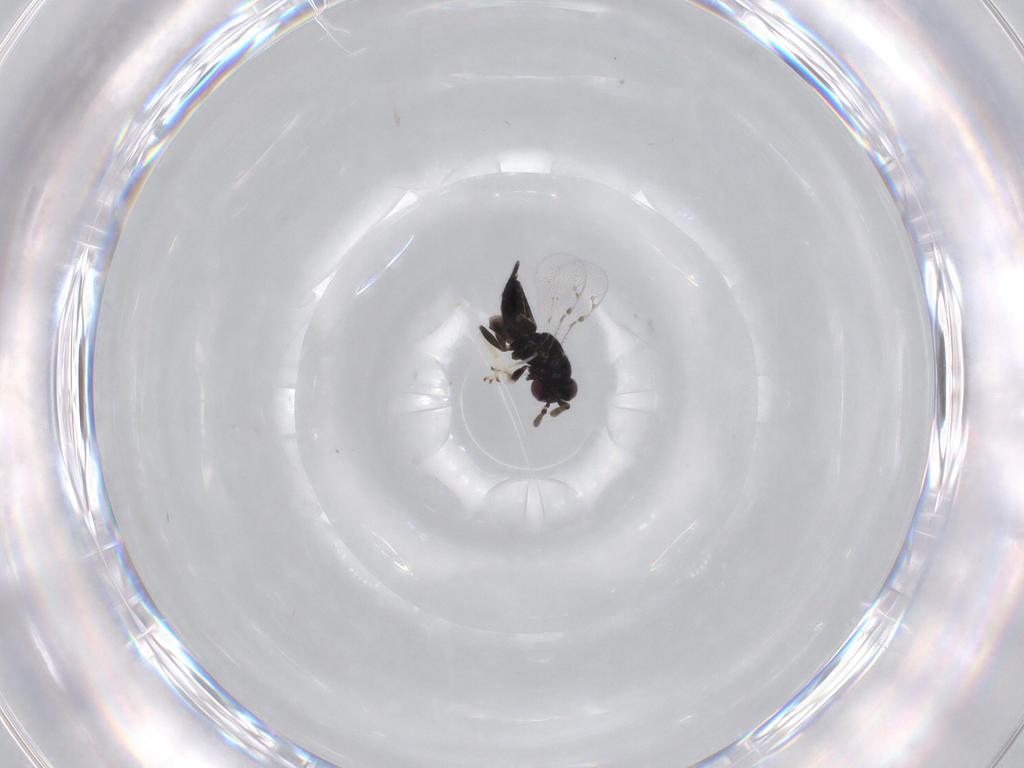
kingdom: Animalia
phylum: Arthropoda
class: Insecta
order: Hymenoptera
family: Pirenidae
